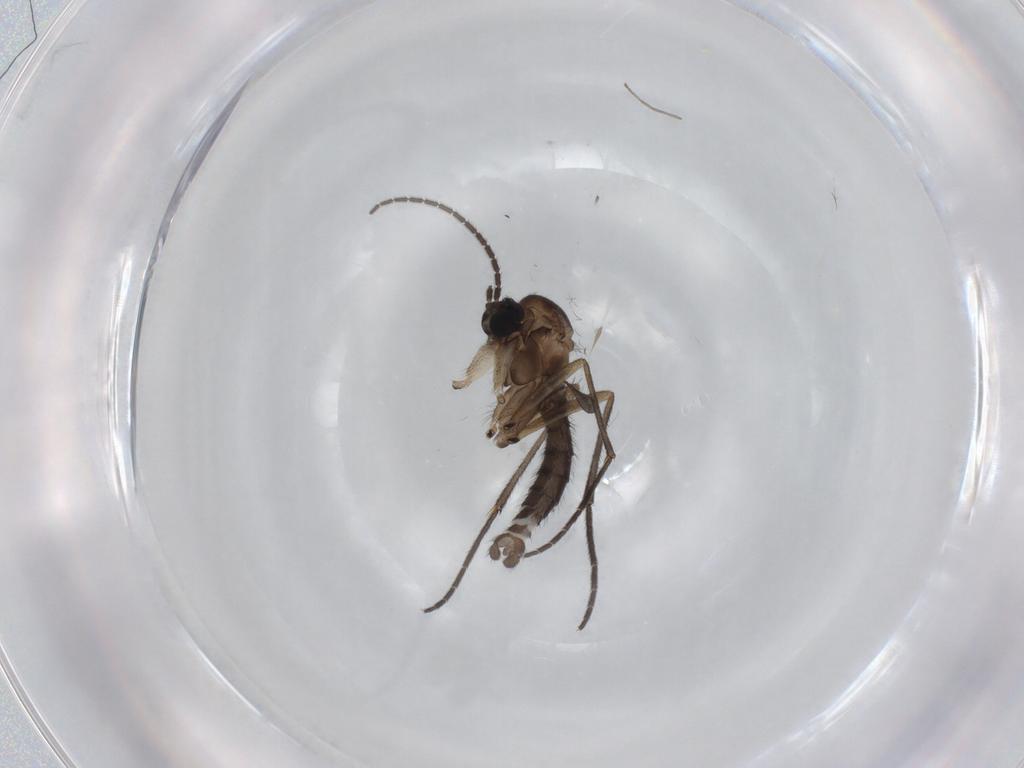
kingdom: Animalia
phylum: Arthropoda
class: Insecta
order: Diptera
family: Sciaridae
